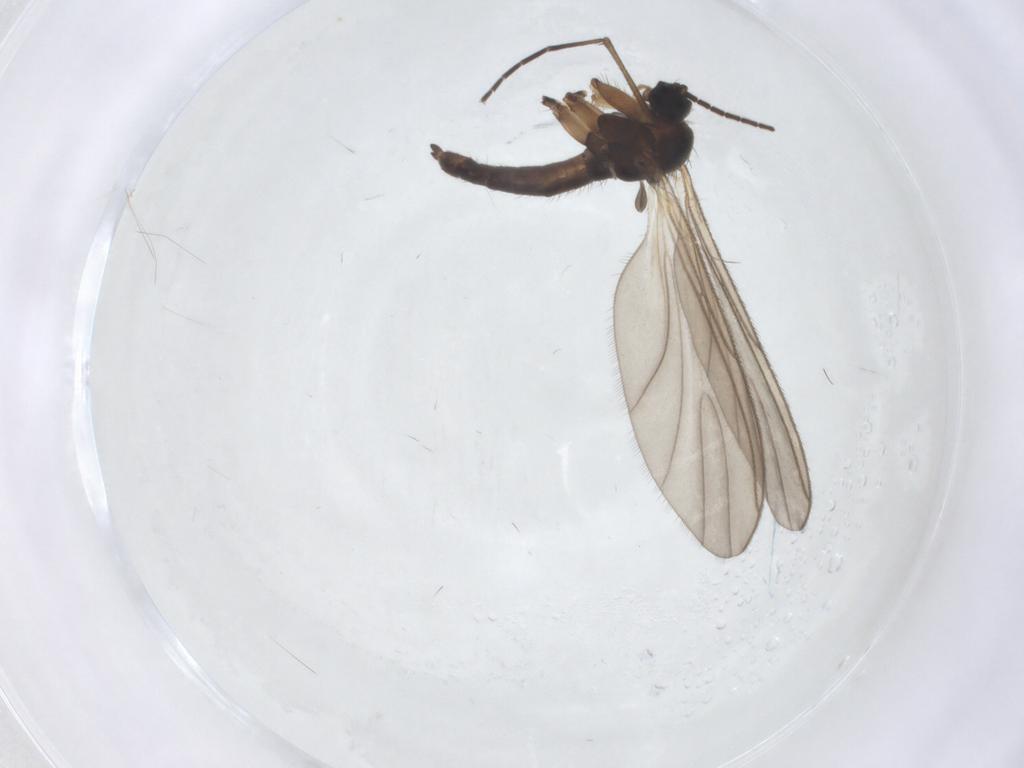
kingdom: Animalia
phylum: Arthropoda
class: Insecta
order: Diptera
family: Sciaridae
